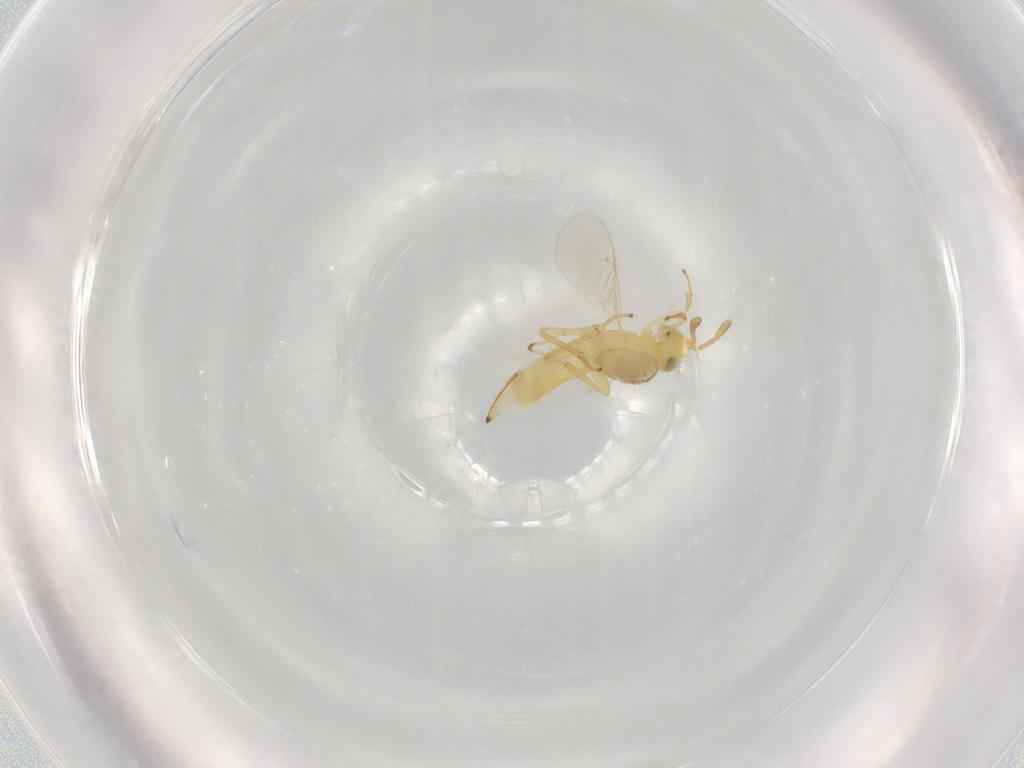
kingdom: Animalia
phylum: Arthropoda
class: Insecta
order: Hymenoptera
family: Encyrtidae
